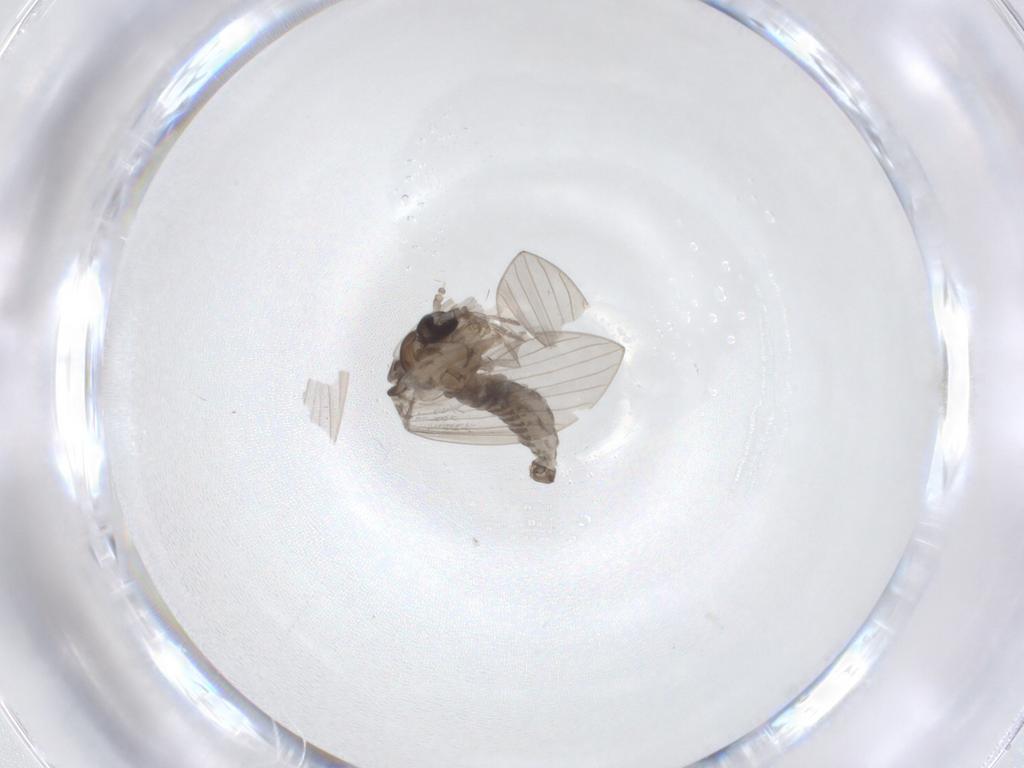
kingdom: Animalia
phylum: Arthropoda
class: Insecta
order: Diptera
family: Psychodidae
